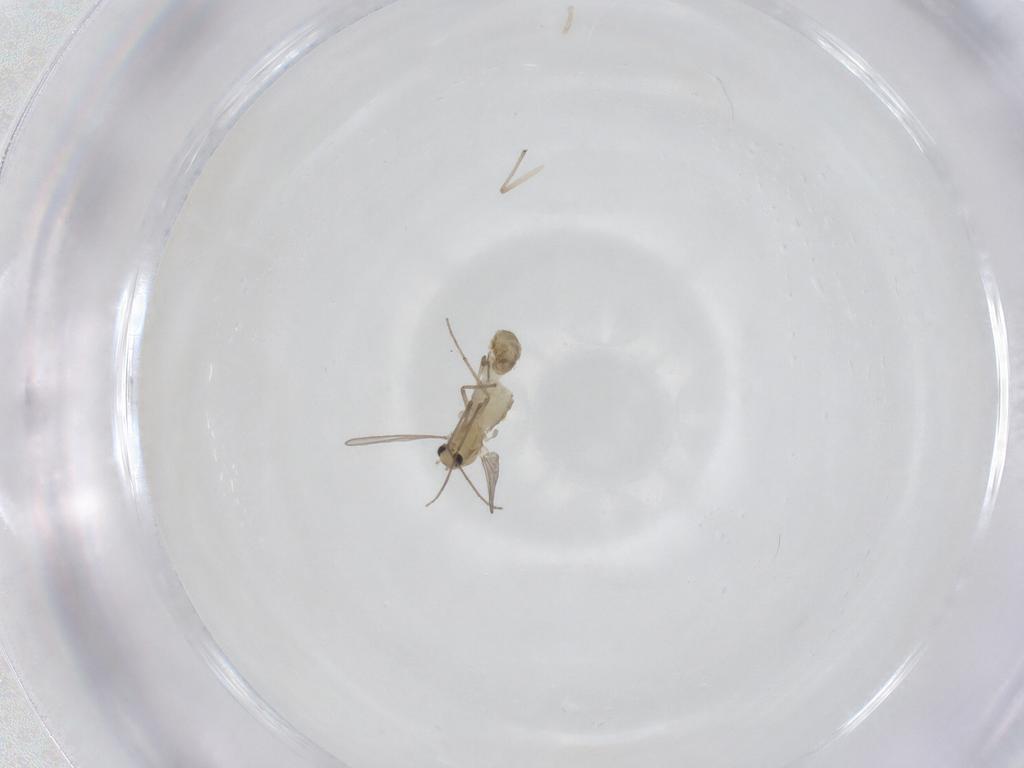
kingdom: Animalia
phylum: Arthropoda
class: Insecta
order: Diptera
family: Chironomidae
